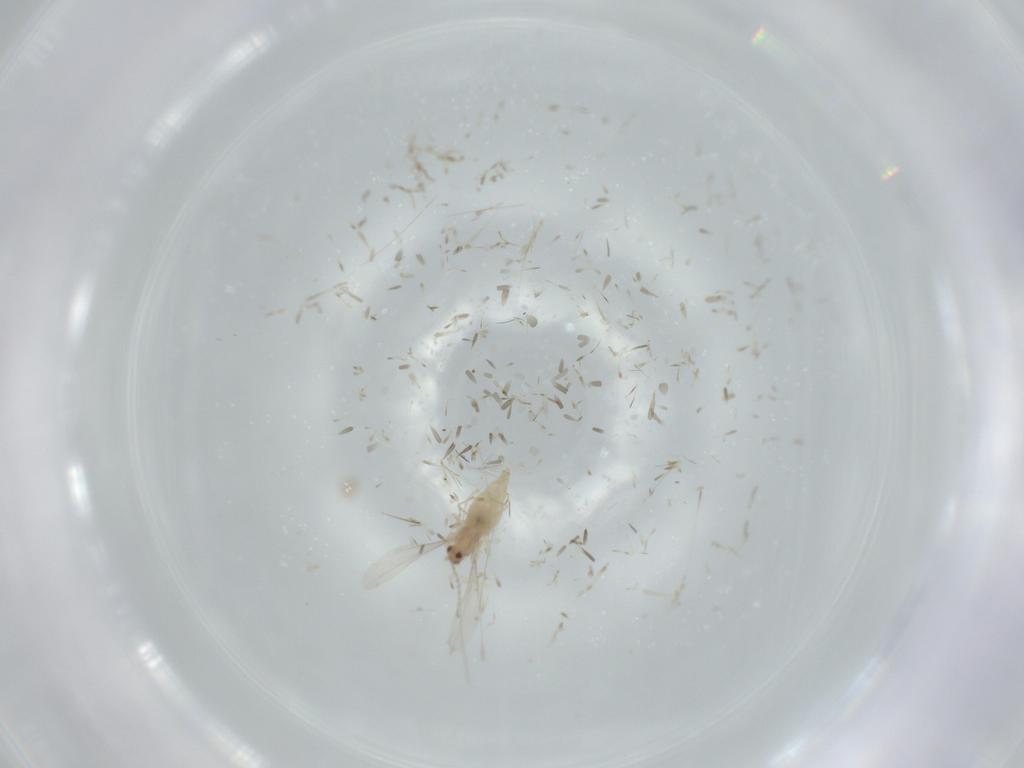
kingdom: Animalia
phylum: Arthropoda
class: Insecta
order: Diptera
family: Cecidomyiidae
